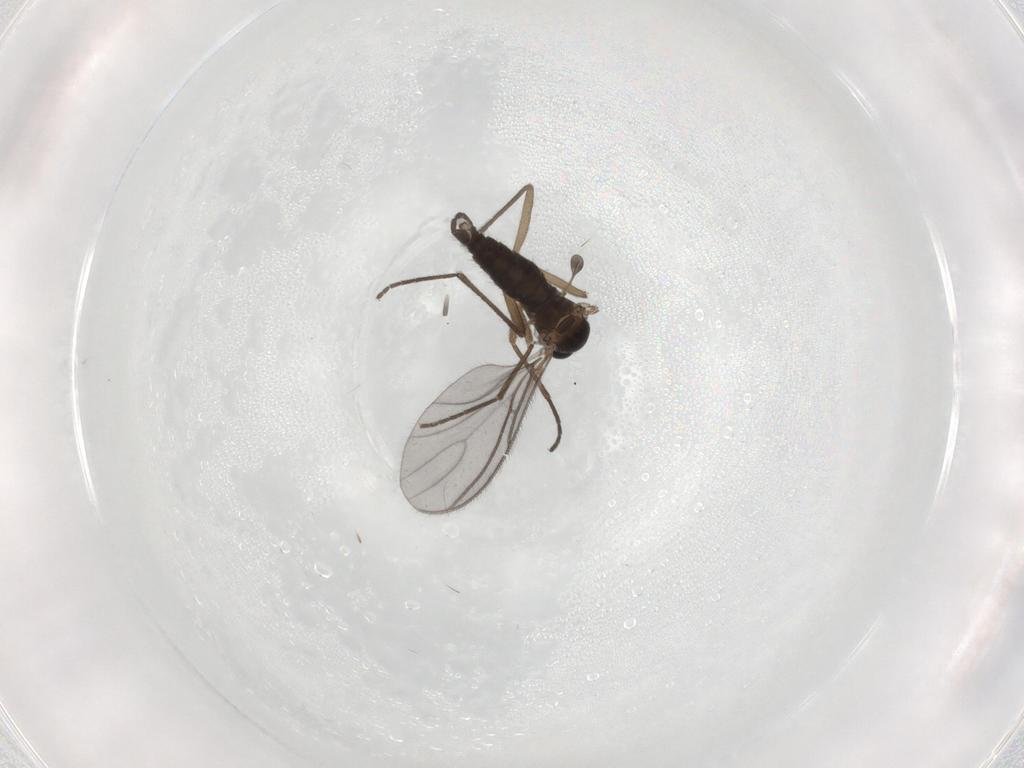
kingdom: Animalia
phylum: Arthropoda
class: Insecta
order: Diptera
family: Sciaridae
